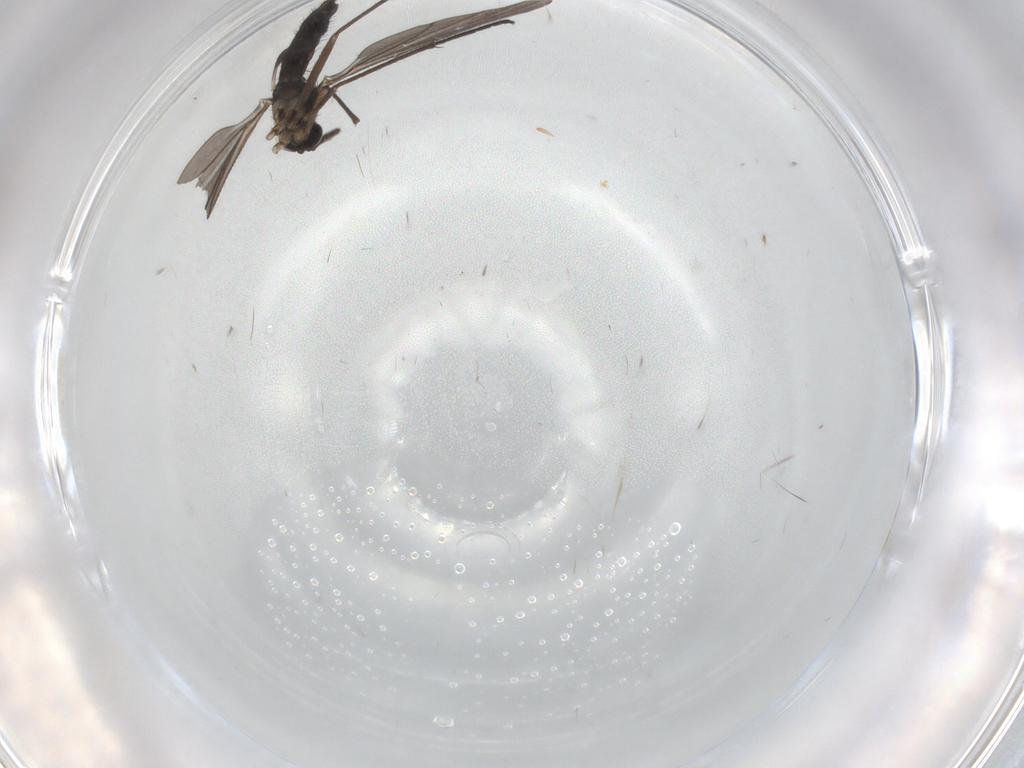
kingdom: Animalia
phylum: Arthropoda
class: Insecta
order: Diptera
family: Sciaridae
